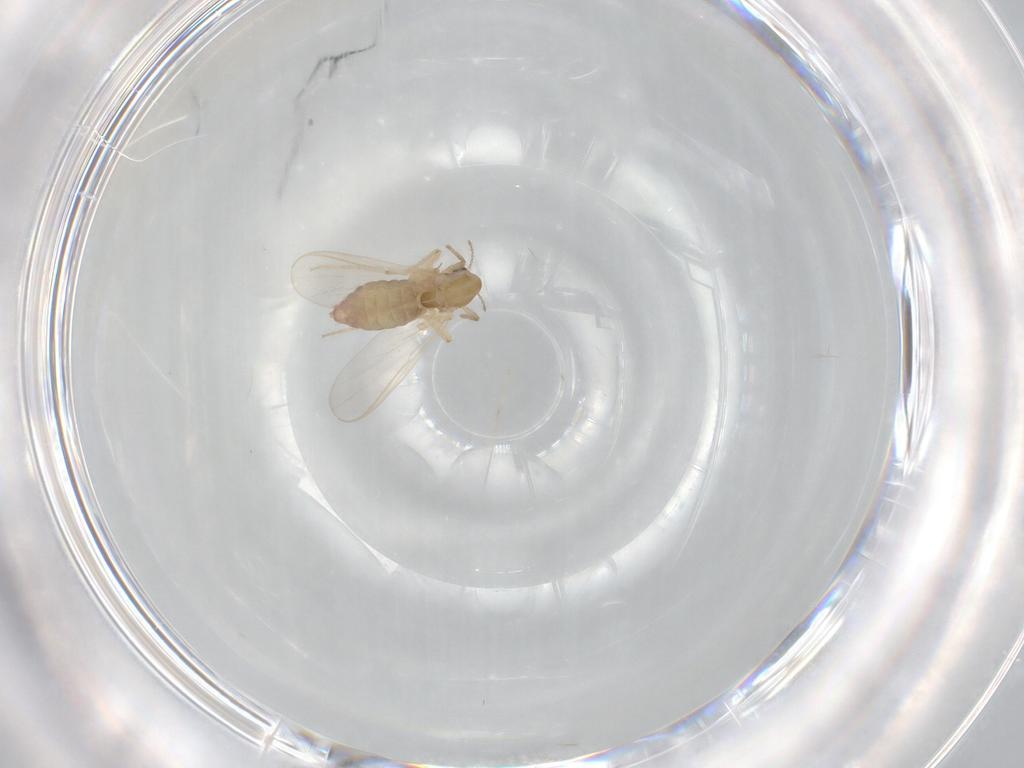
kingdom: Animalia
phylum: Arthropoda
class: Insecta
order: Diptera
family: Chironomidae
